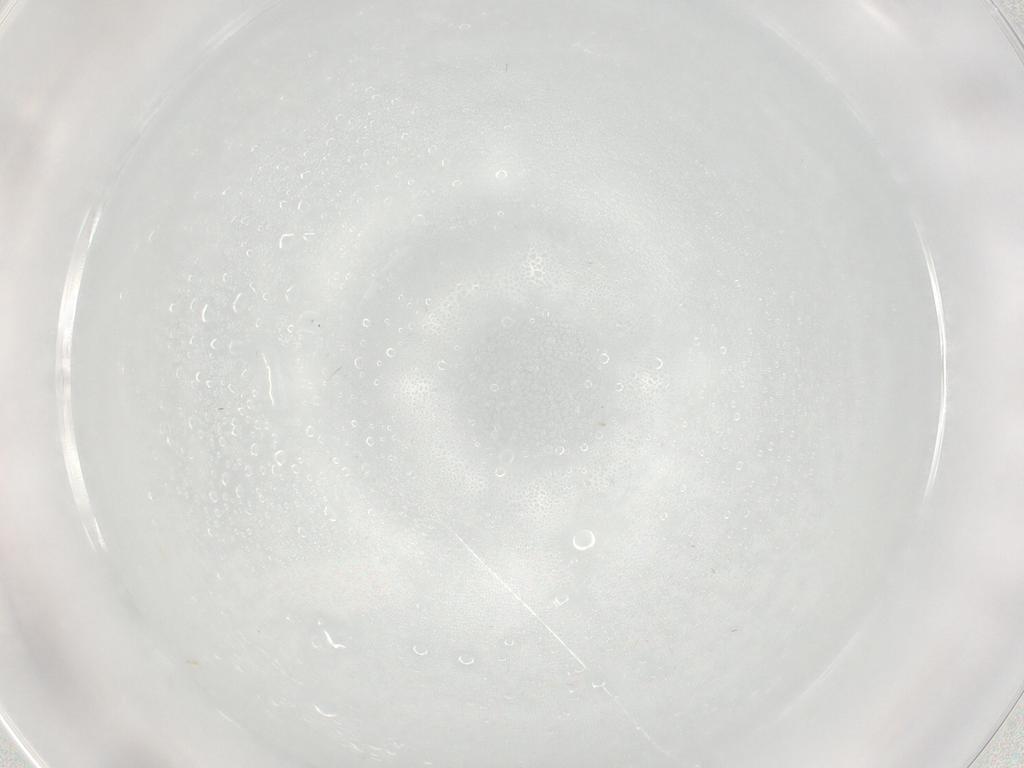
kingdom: Animalia
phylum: Arthropoda
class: Insecta
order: Diptera
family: Cecidomyiidae
